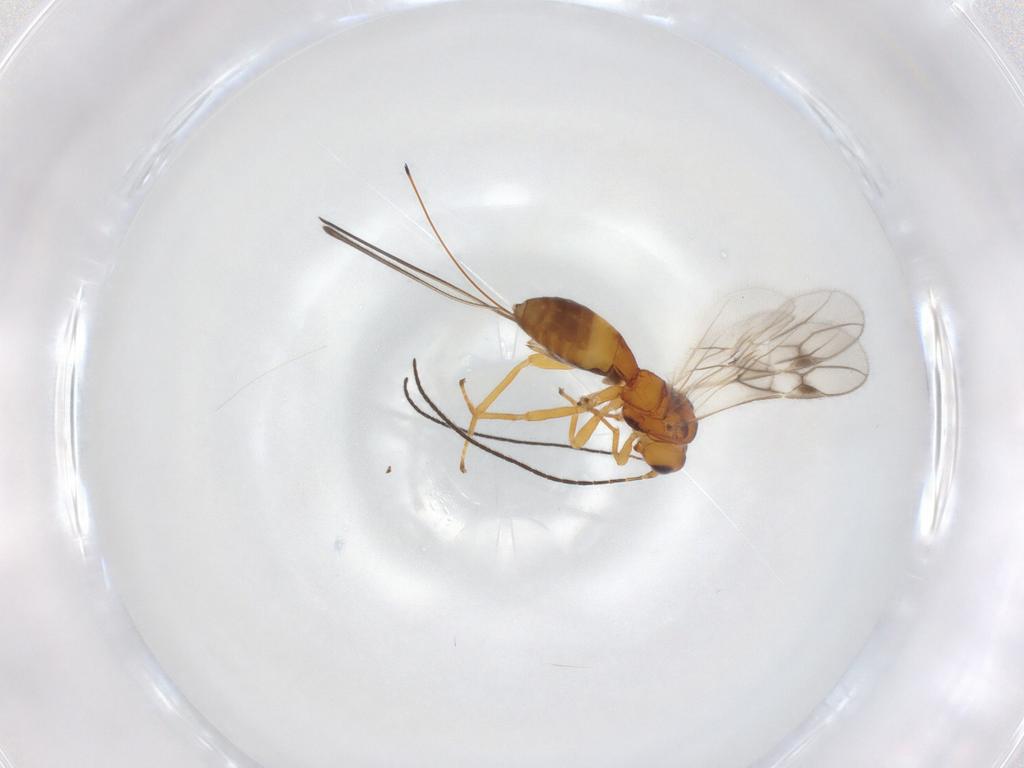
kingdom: Animalia
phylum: Arthropoda
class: Insecta
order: Hymenoptera
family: Braconidae
